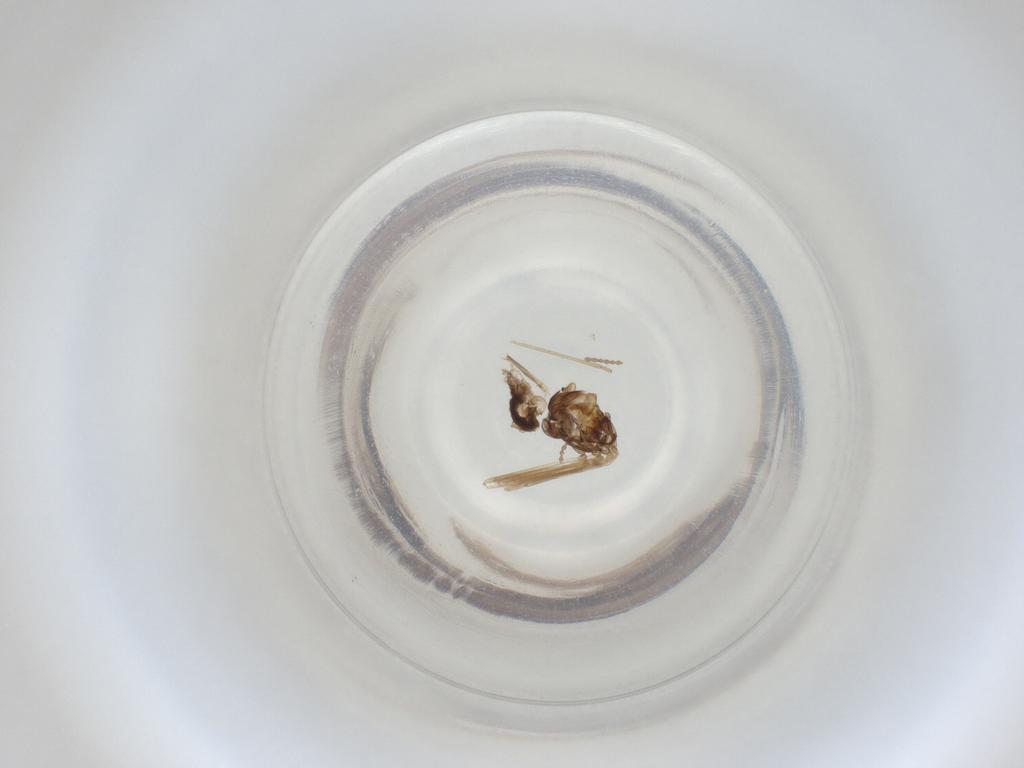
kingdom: Animalia
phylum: Arthropoda
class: Insecta
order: Diptera
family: Cecidomyiidae
